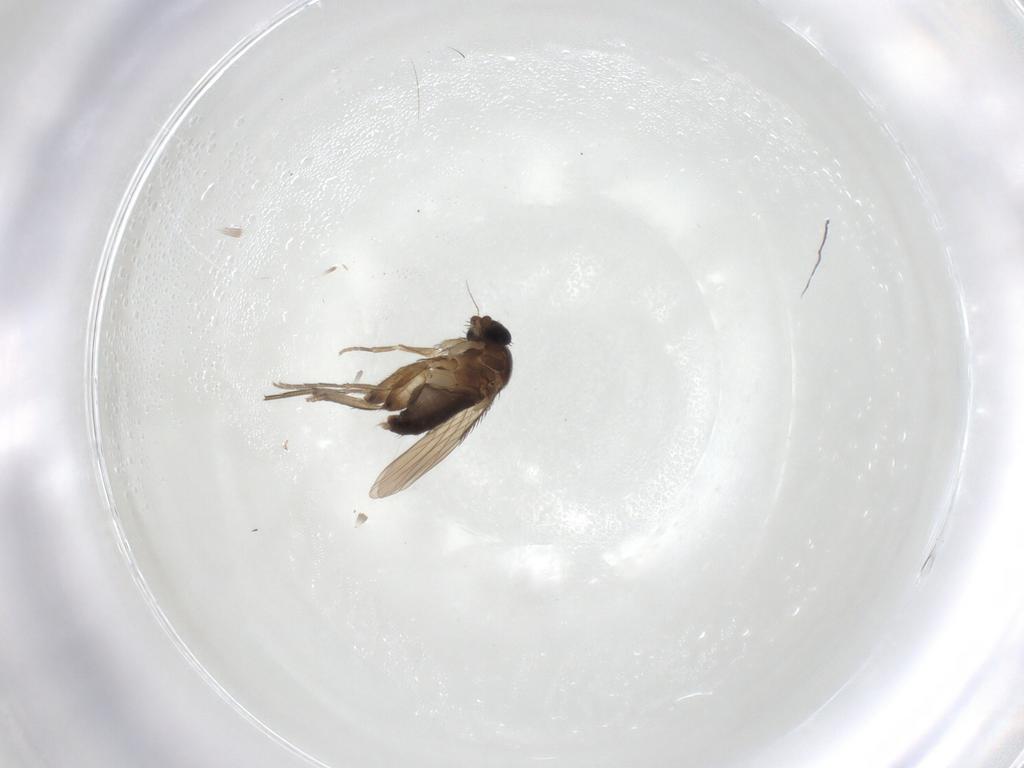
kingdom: Animalia
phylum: Arthropoda
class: Insecta
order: Diptera
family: Phoridae
